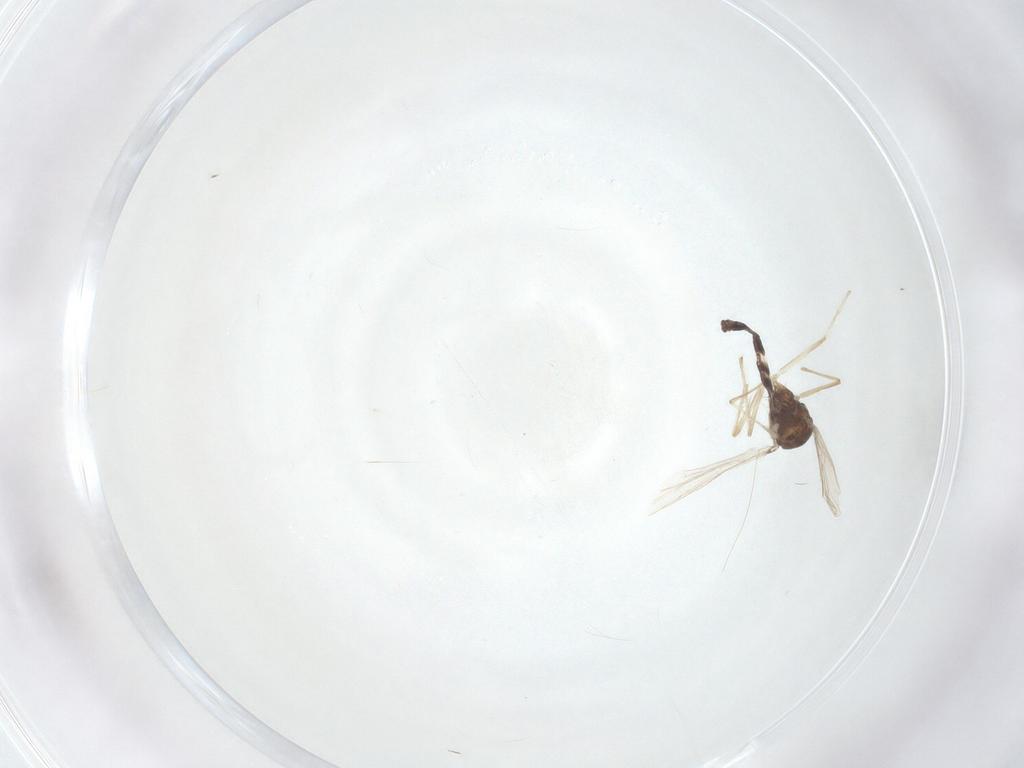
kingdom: Animalia
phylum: Arthropoda
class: Insecta
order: Diptera
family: Chironomidae
